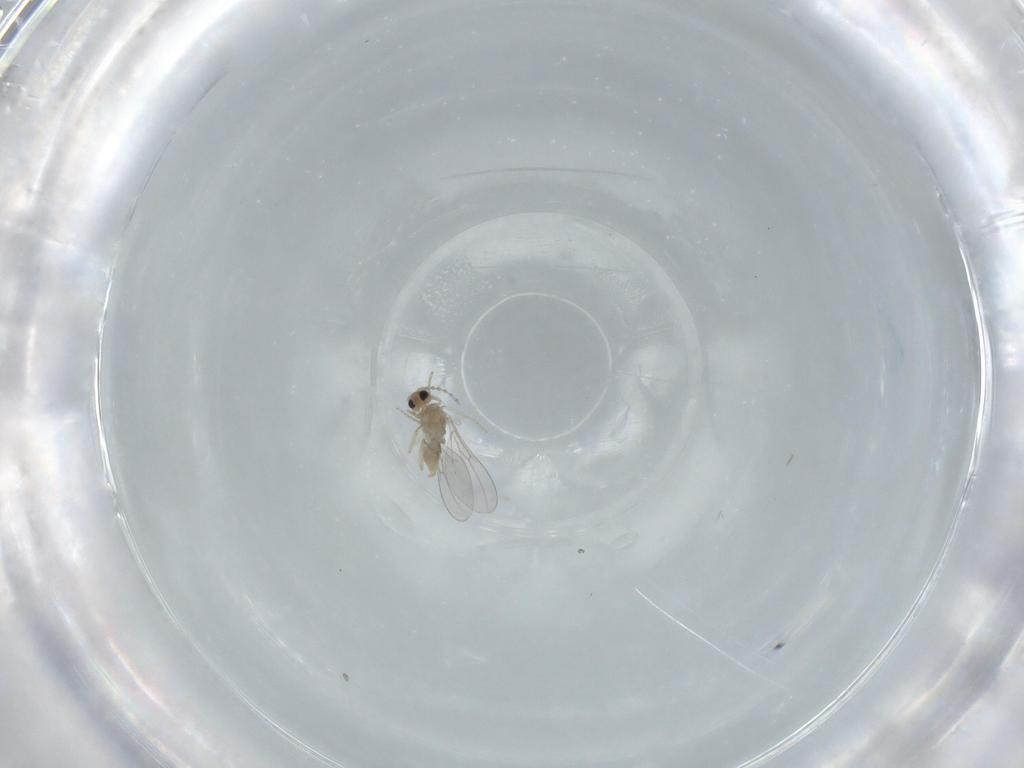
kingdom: Animalia
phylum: Arthropoda
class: Insecta
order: Diptera
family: Cecidomyiidae
